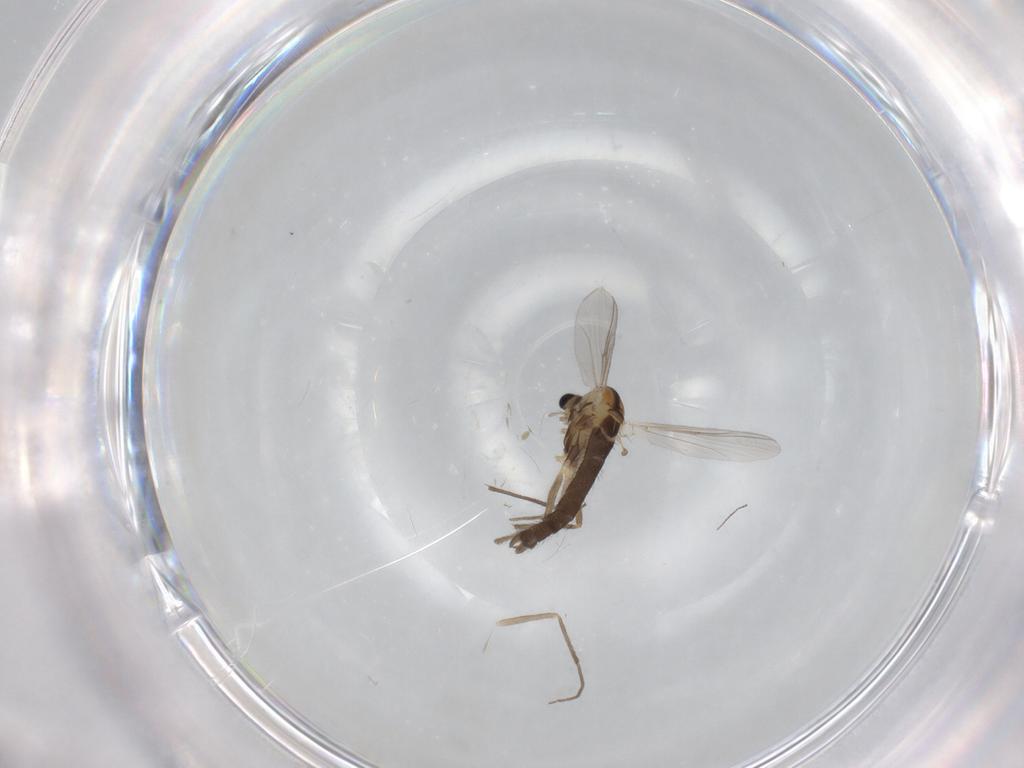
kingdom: Animalia
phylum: Arthropoda
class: Insecta
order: Diptera
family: Chironomidae
